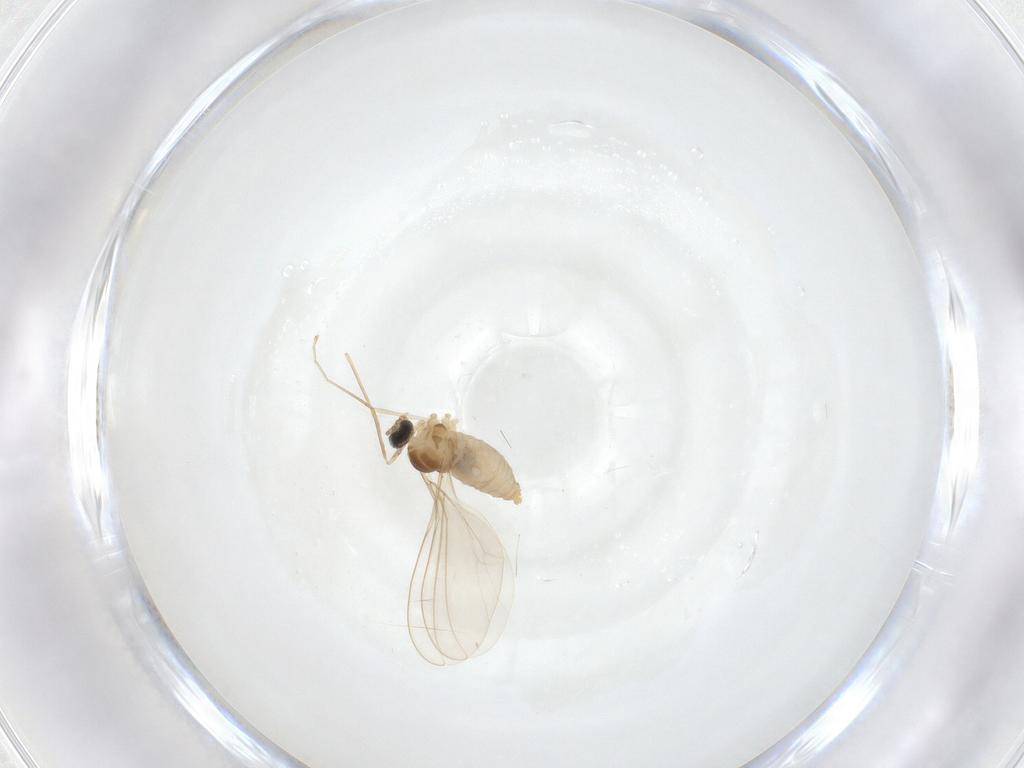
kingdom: Animalia
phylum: Arthropoda
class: Insecta
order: Diptera
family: Cecidomyiidae
